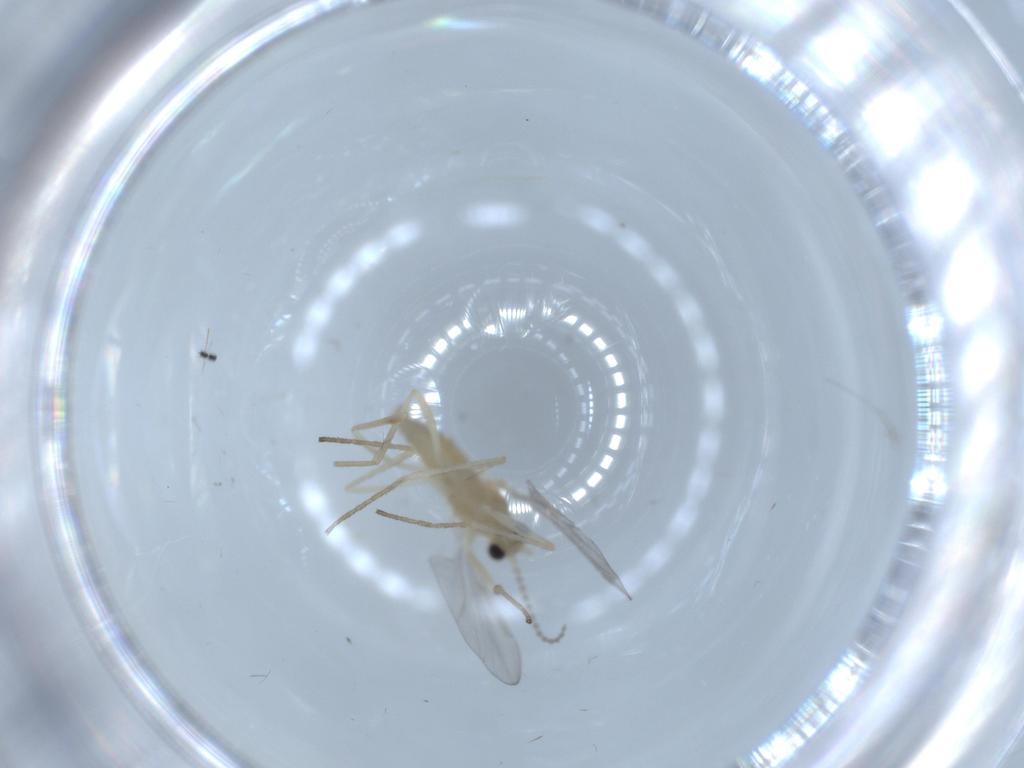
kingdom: Animalia
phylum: Arthropoda
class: Insecta
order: Diptera
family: Cecidomyiidae
